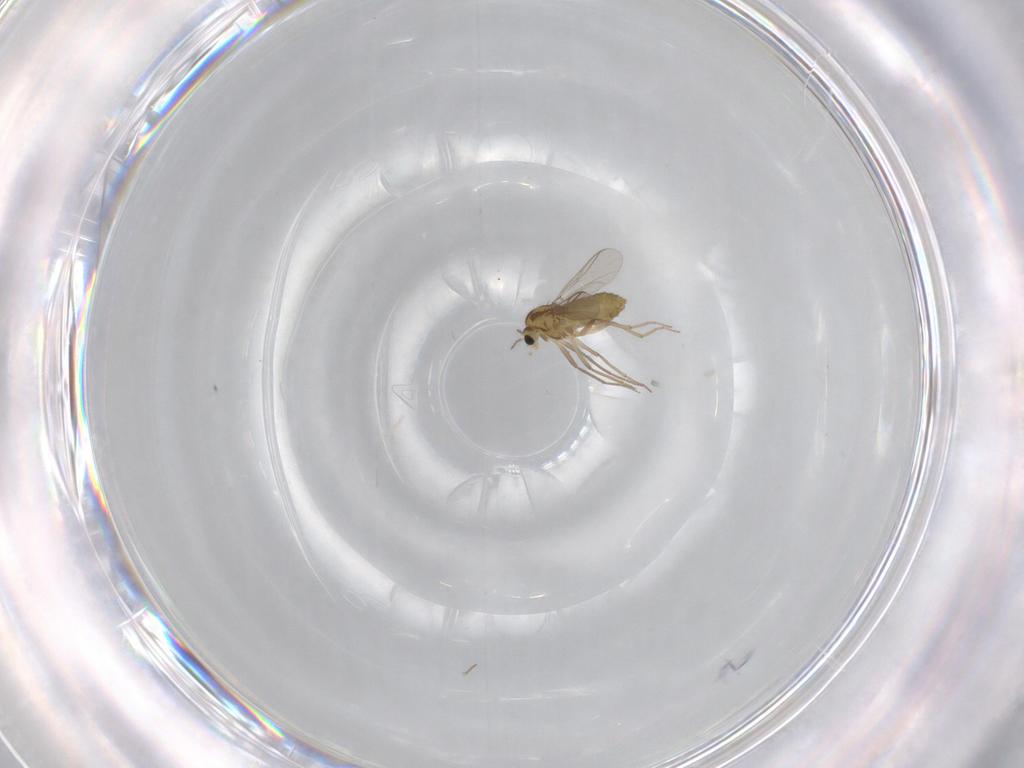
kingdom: Animalia
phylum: Arthropoda
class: Insecta
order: Diptera
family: Chironomidae
